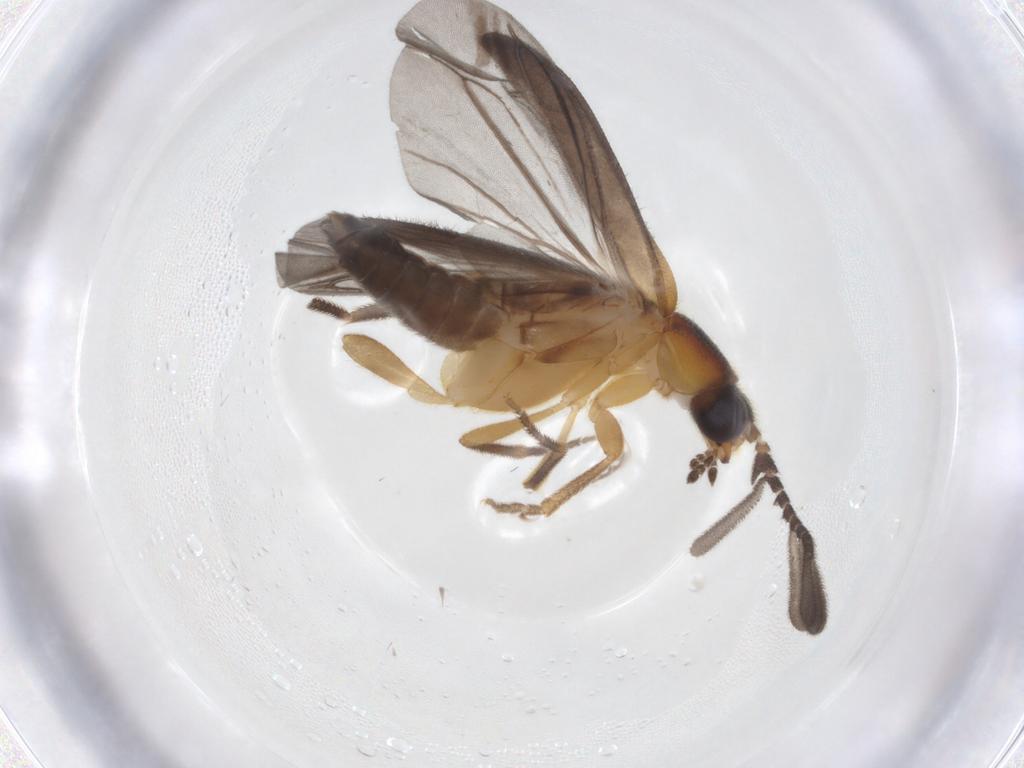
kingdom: Animalia
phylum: Arthropoda
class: Insecta
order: Coleoptera
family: Lampyridae
